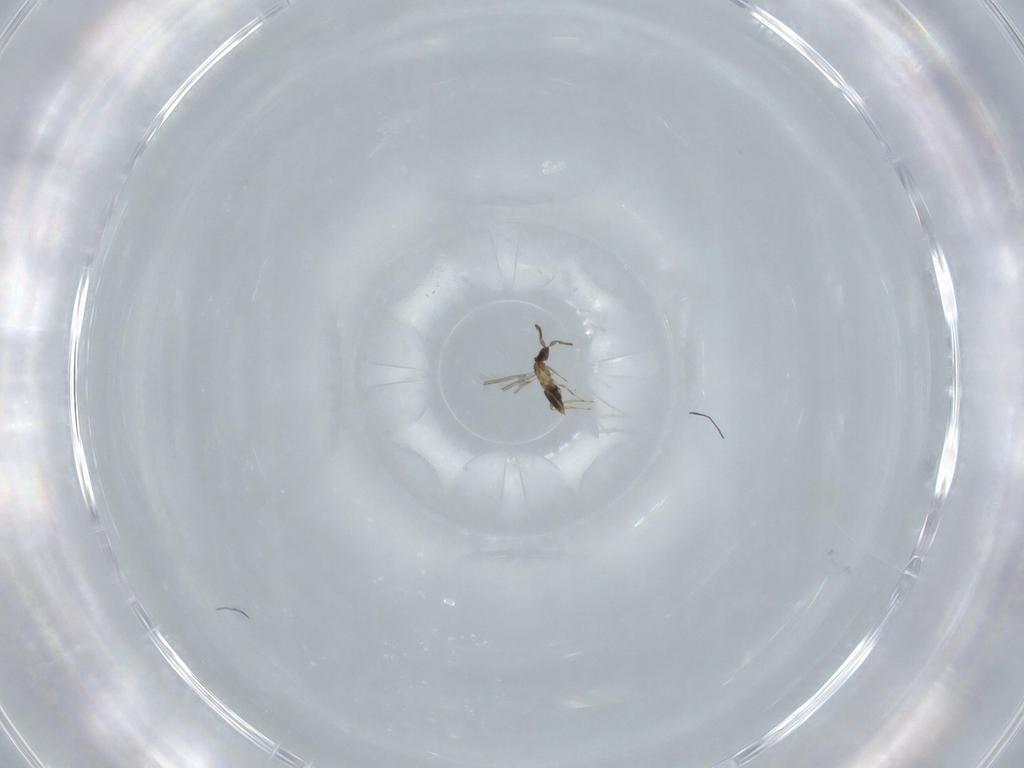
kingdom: Animalia
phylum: Arthropoda
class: Insecta
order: Hymenoptera
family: Mymaridae
